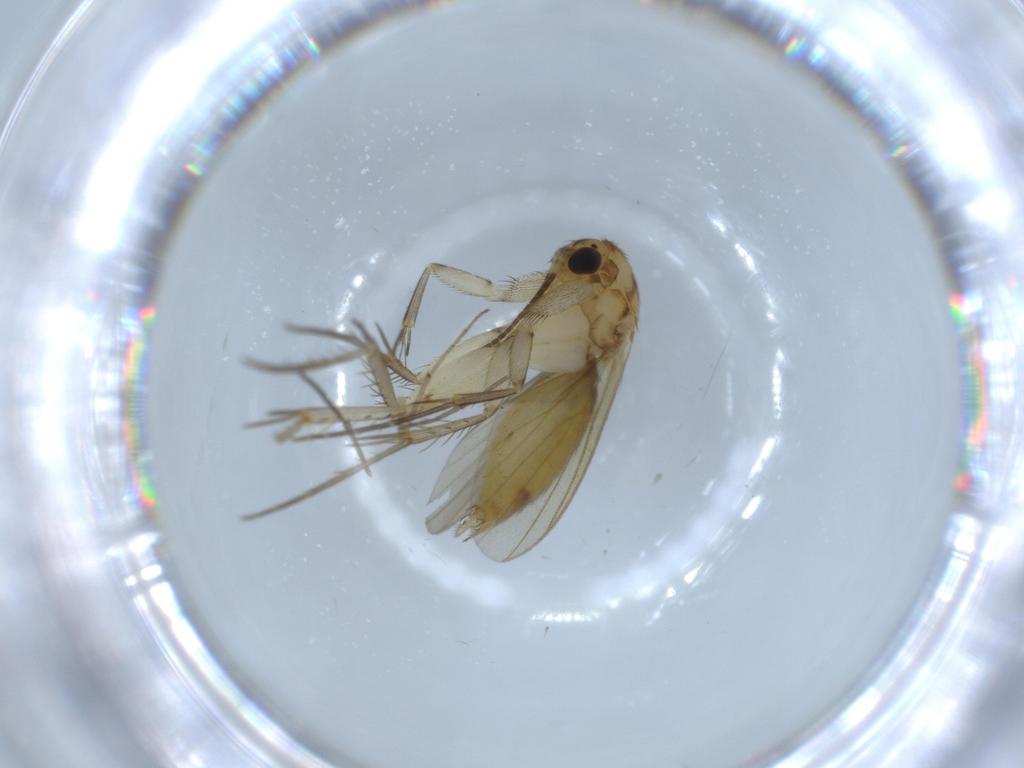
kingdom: Animalia
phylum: Arthropoda
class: Insecta
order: Diptera
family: Mycetophilidae
